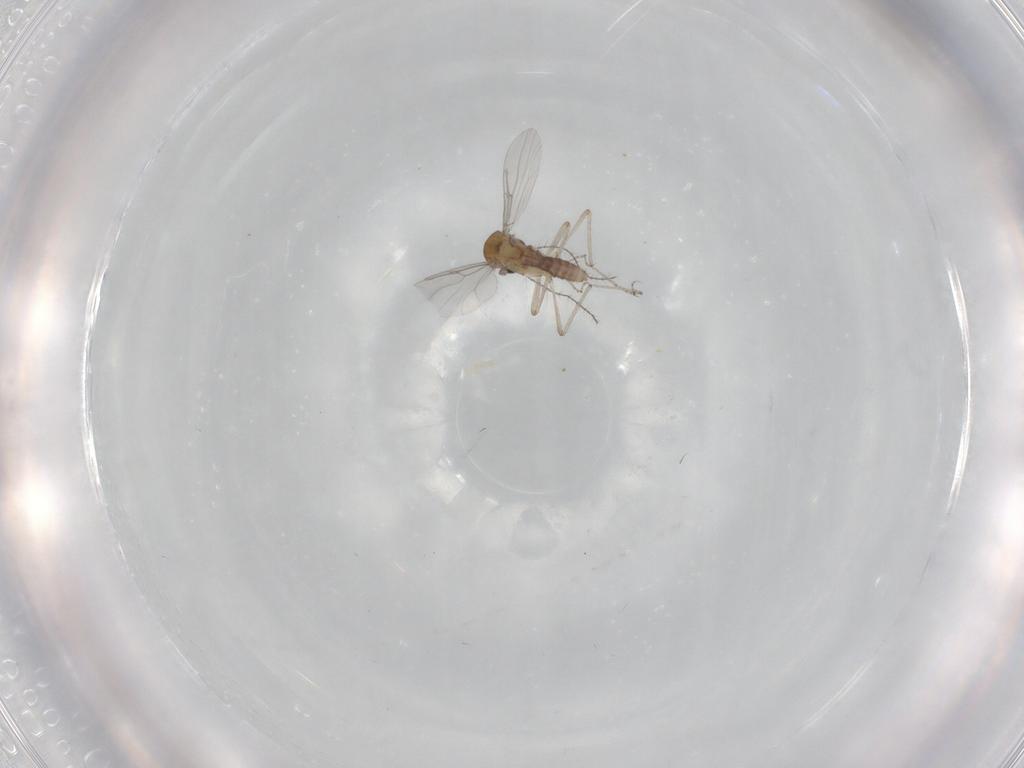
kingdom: Animalia
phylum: Arthropoda
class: Insecta
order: Diptera
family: Ceratopogonidae
